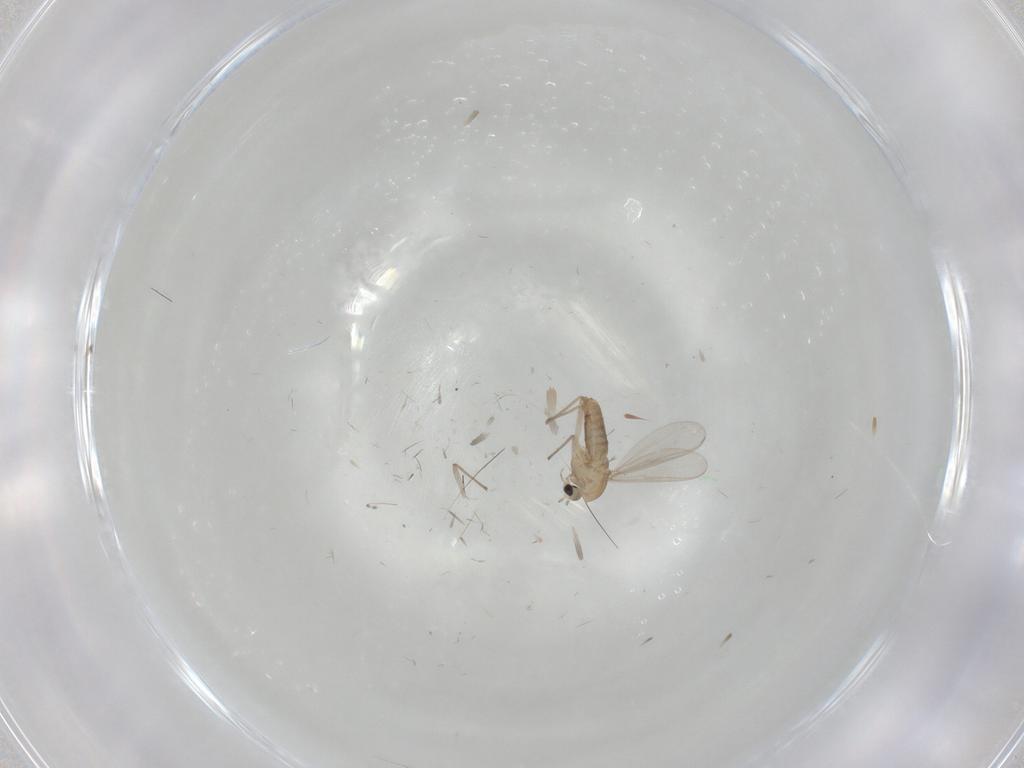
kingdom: Animalia
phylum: Arthropoda
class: Insecta
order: Diptera
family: Chironomidae
